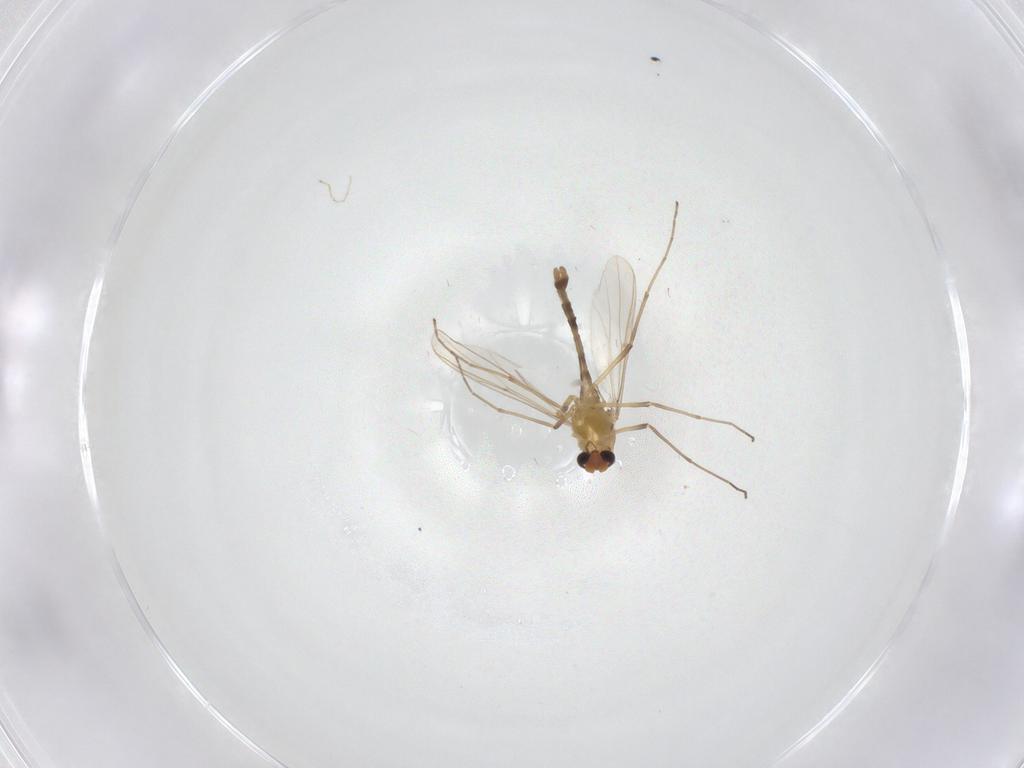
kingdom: Animalia
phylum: Arthropoda
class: Insecta
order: Diptera
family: Chironomidae
